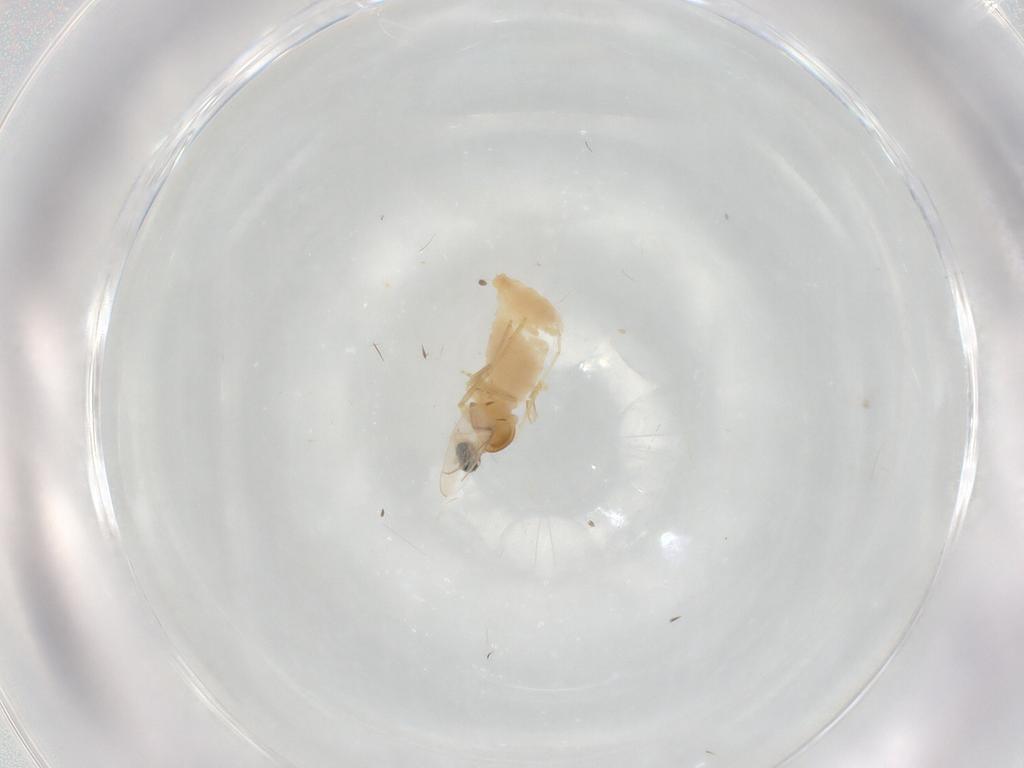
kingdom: Animalia
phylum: Arthropoda
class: Insecta
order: Diptera
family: Cecidomyiidae
